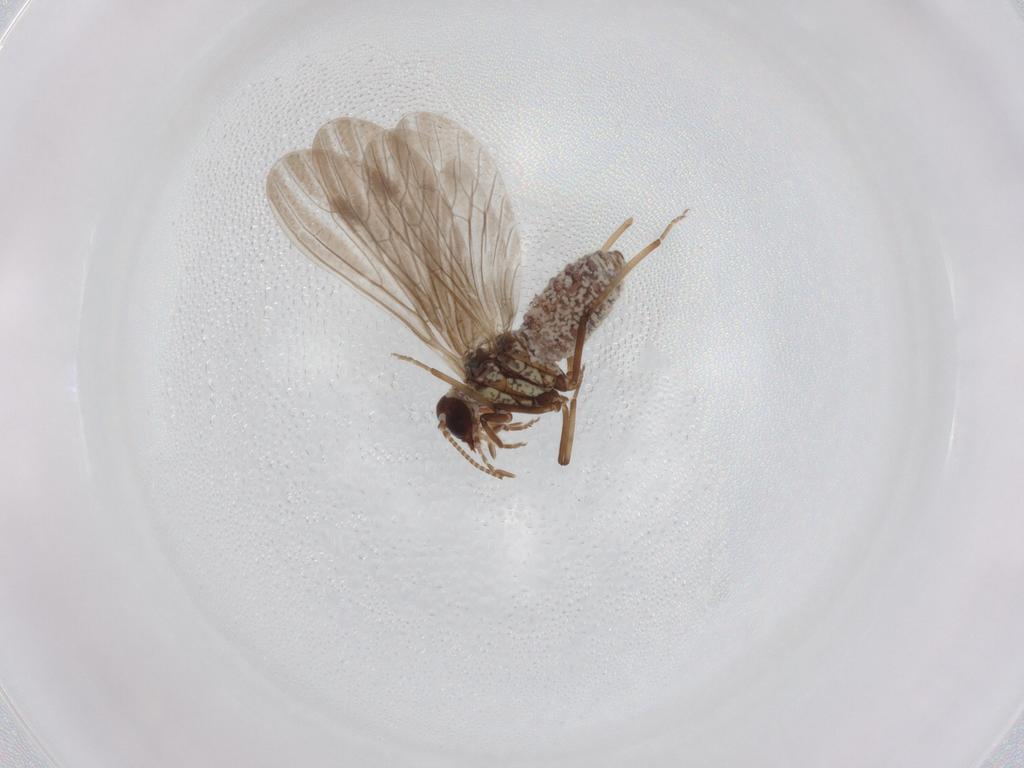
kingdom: Animalia
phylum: Arthropoda
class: Insecta
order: Neuroptera
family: Coniopterygidae
